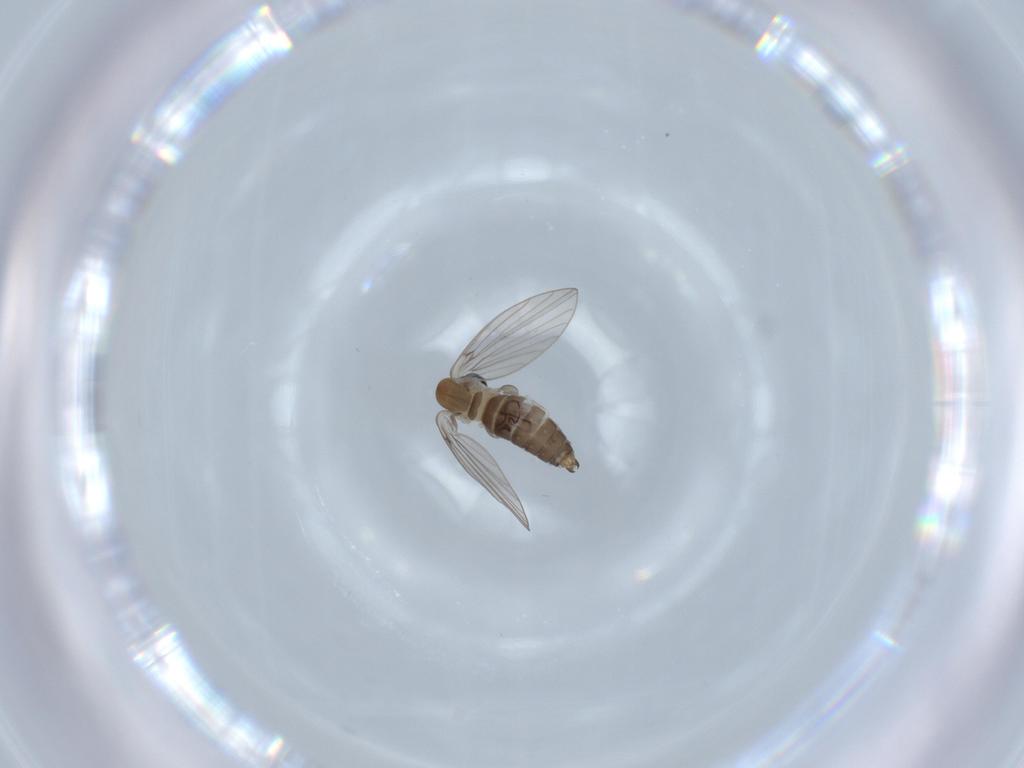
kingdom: Animalia
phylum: Arthropoda
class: Insecta
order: Diptera
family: Psychodidae
